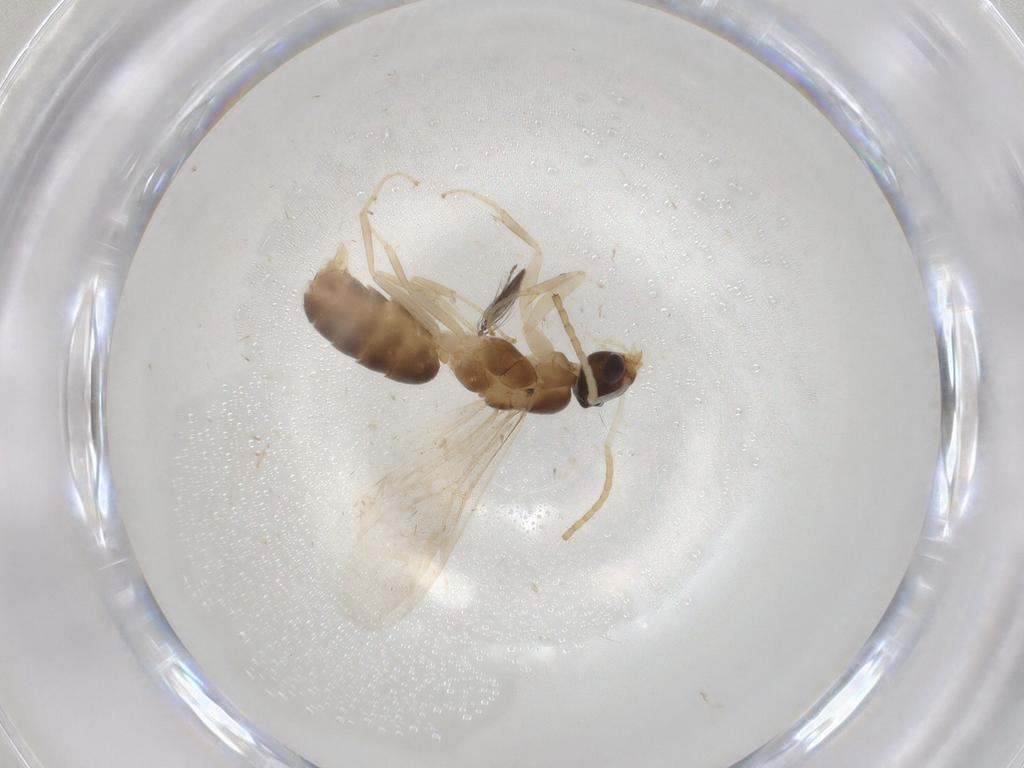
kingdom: Animalia
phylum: Arthropoda
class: Insecta
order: Hymenoptera
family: Formicidae
